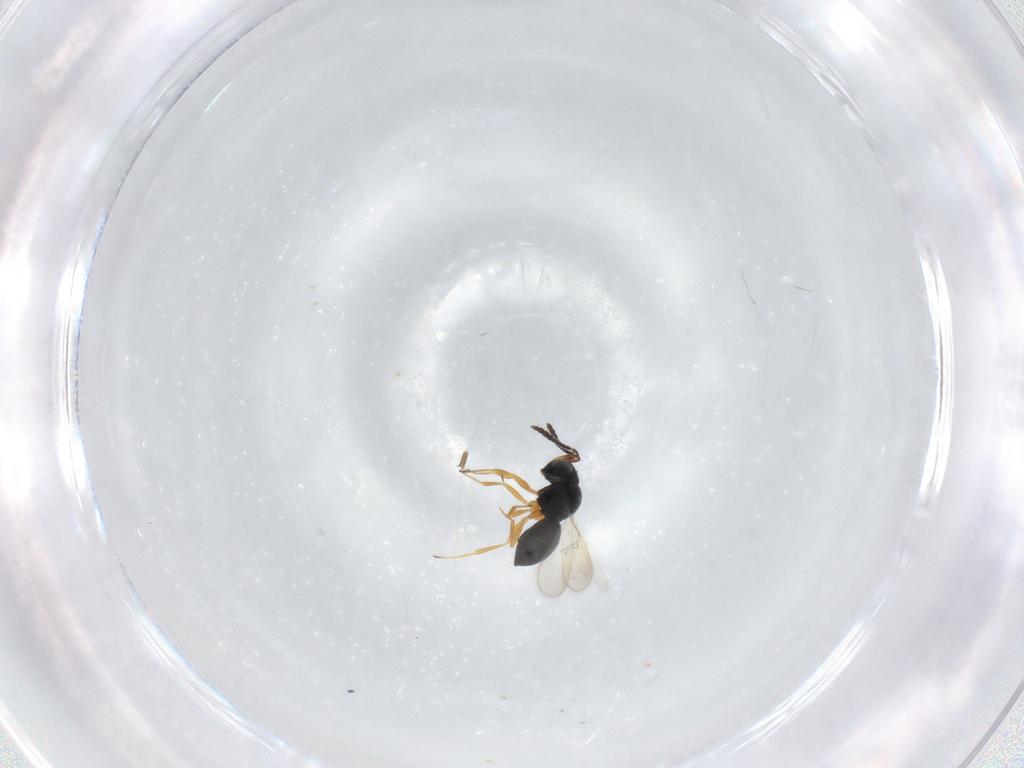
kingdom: Animalia
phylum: Arthropoda
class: Insecta
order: Hymenoptera
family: Scelionidae
